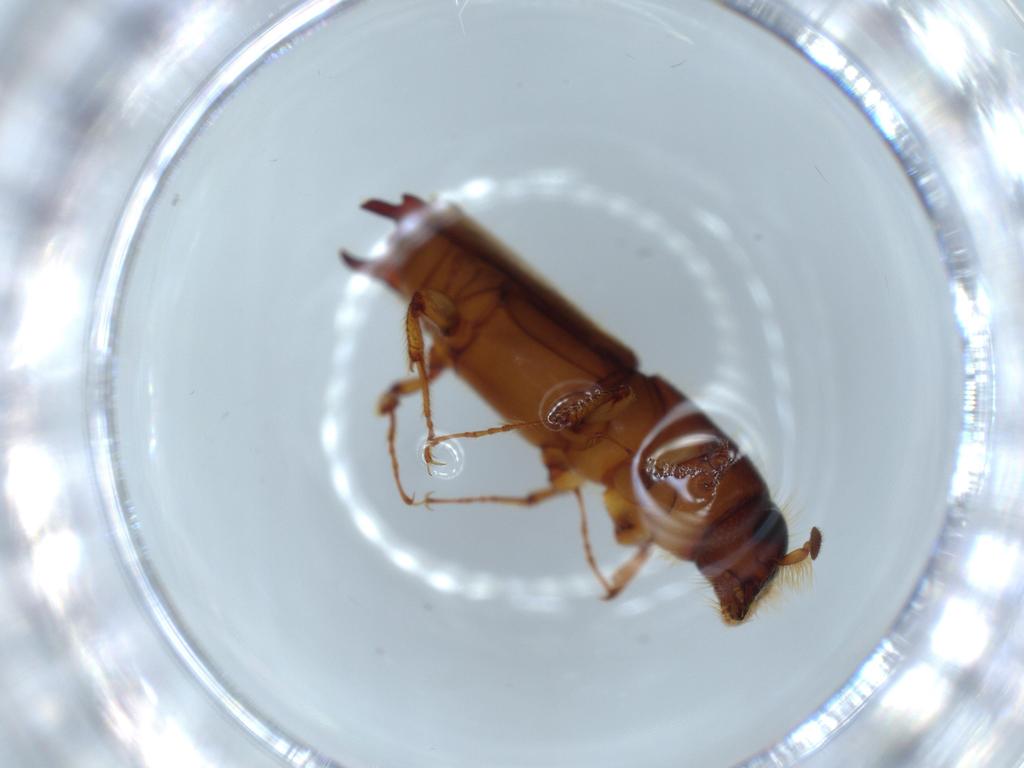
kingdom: Animalia
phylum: Arthropoda
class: Insecta
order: Coleoptera
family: Curculionidae
